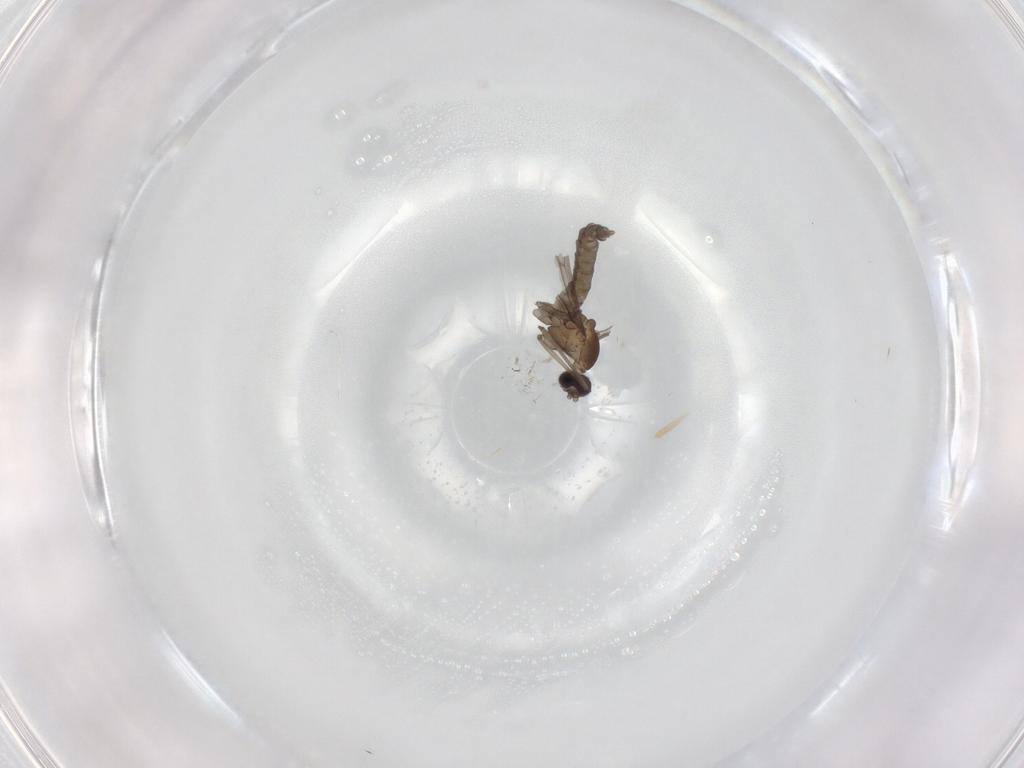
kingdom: Animalia
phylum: Arthropoda
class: Insecta
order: Diptera
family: Cecidomyiidae
